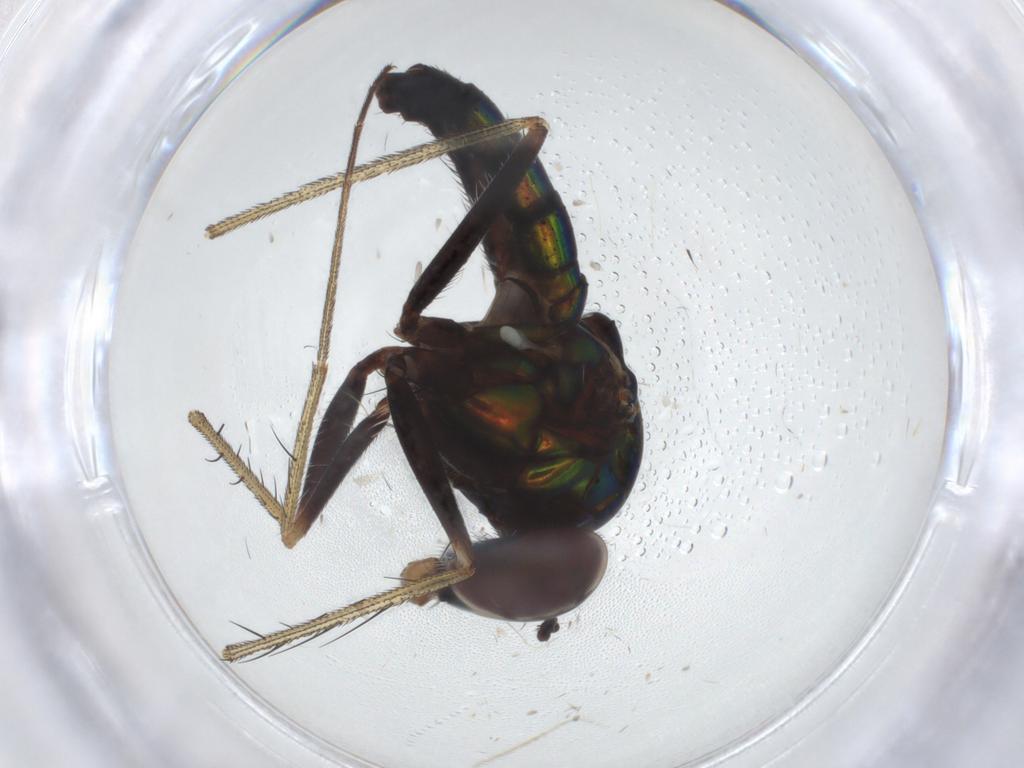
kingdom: Animalia
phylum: Arthropoda
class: Insecta
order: Diptera
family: Dolichopodidae
